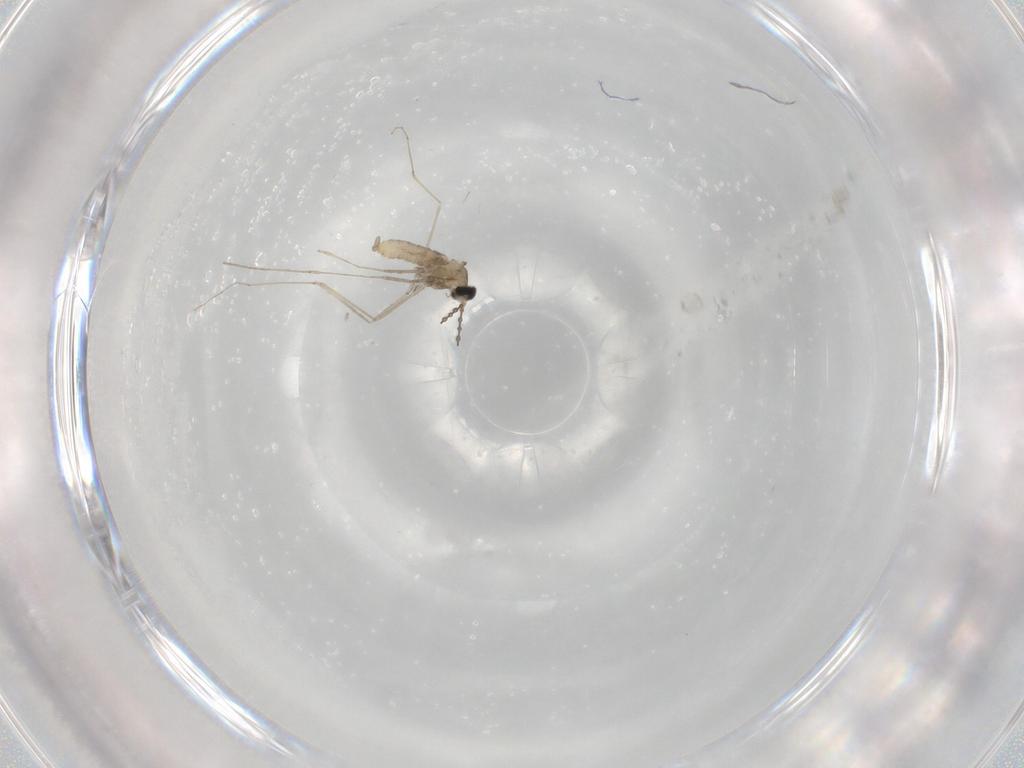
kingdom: Animalia
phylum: Arthropoda
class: Insecta
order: Diptera
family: Cecidomyiidae
